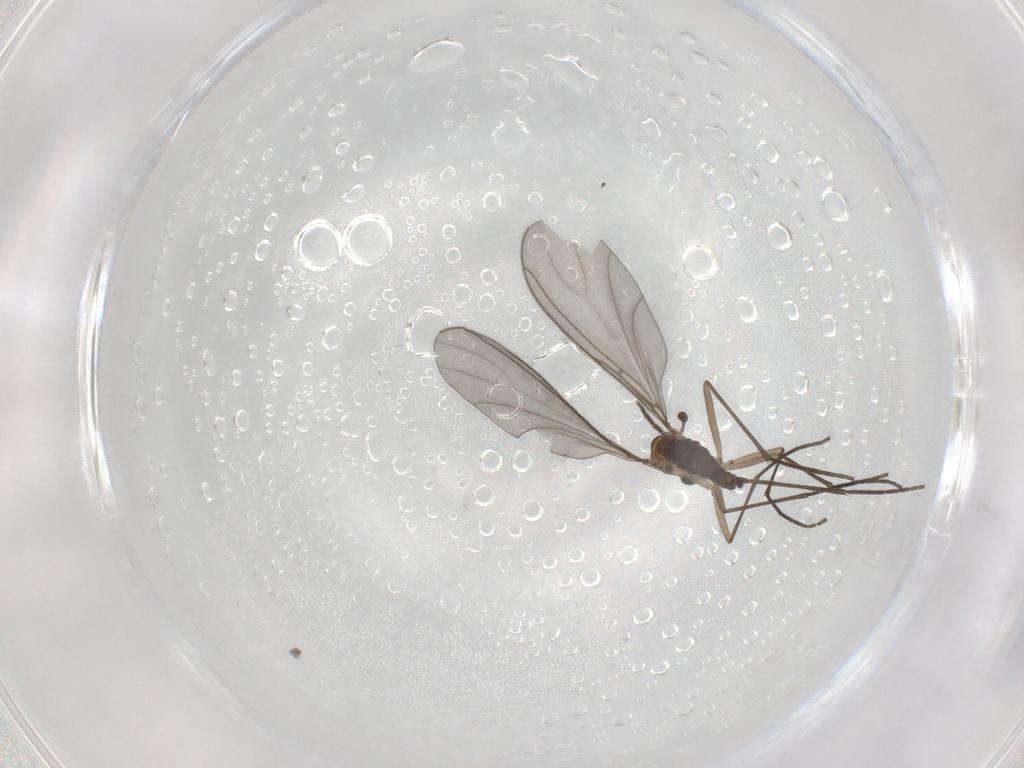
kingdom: Animalia
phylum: Arthropoda
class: Insecta
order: Diptera
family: Sciaridae
